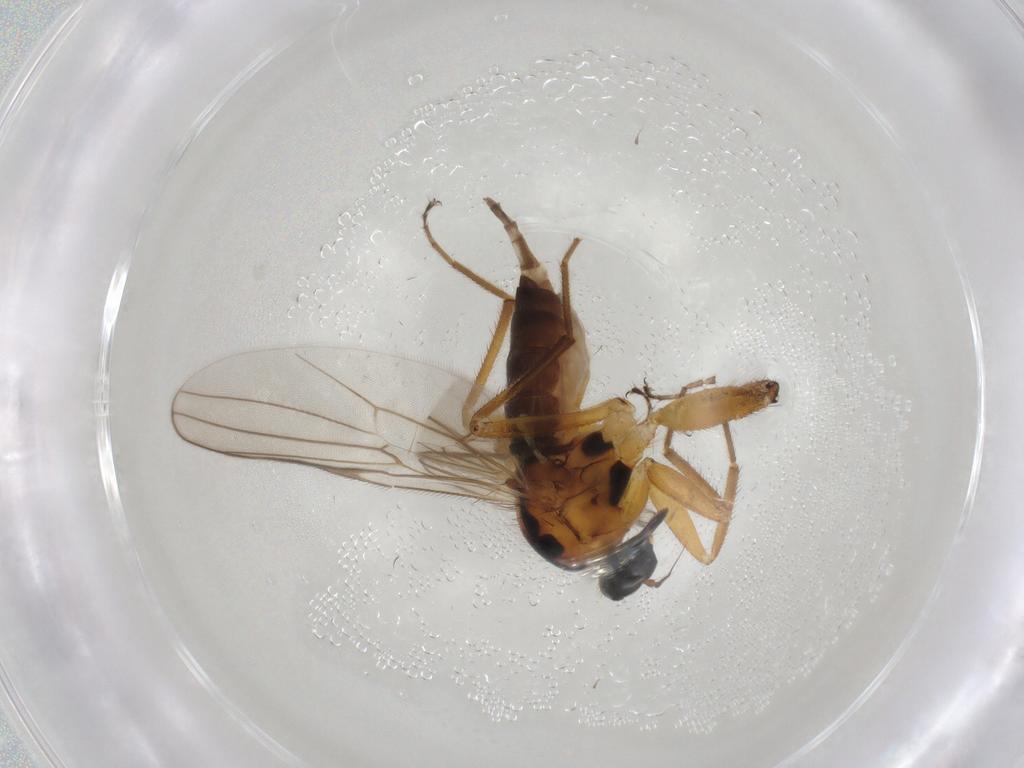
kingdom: Animalia
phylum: Arthropoda
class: Insecta
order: Diptera
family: Hybotidae
